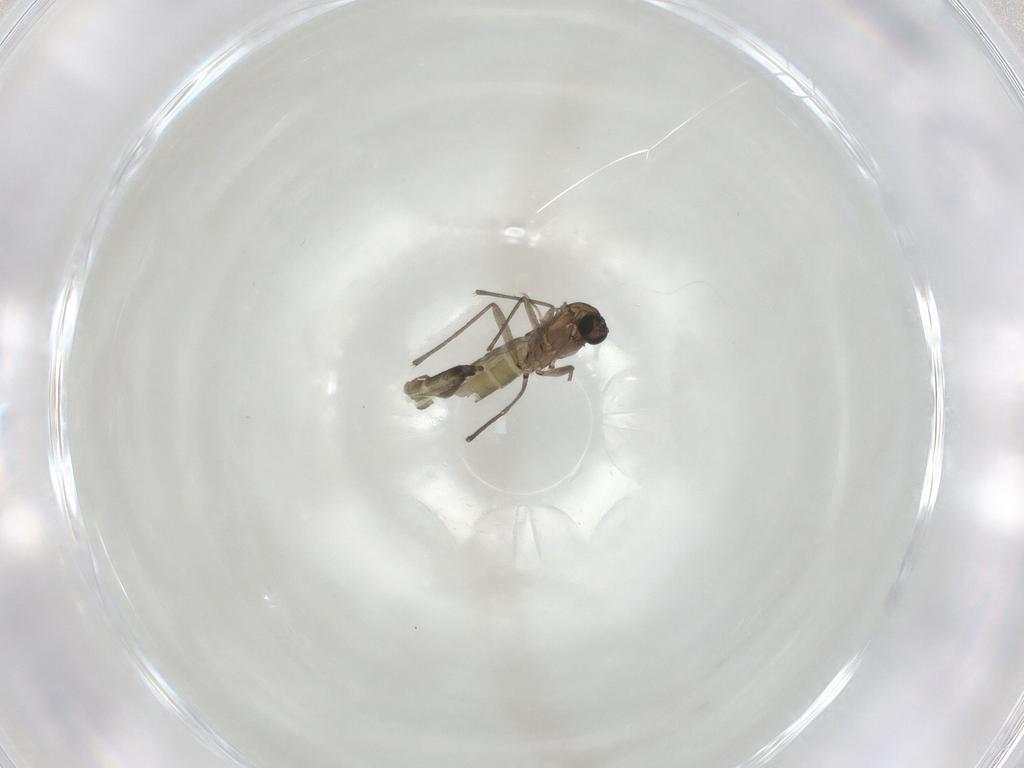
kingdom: Animalia
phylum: Arthropoda
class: Insecta
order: Diptera
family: Sciaridae
